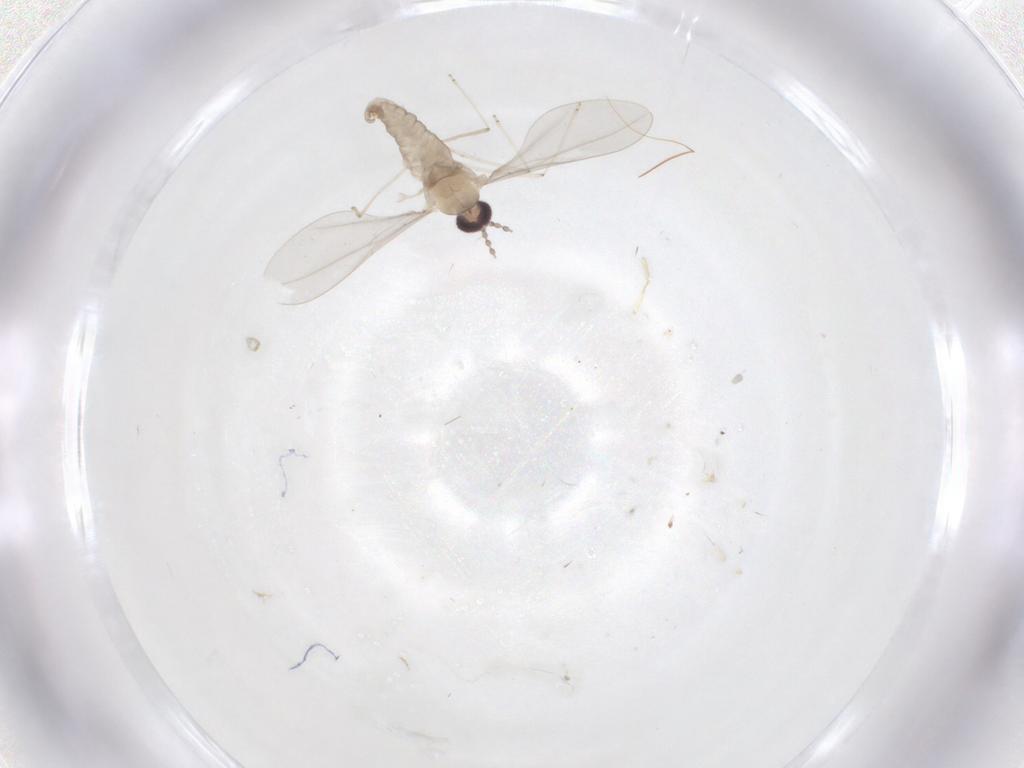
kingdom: Animalia
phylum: Arthropoda
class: Insecta
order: Diptera
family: Cecidomyiidae
